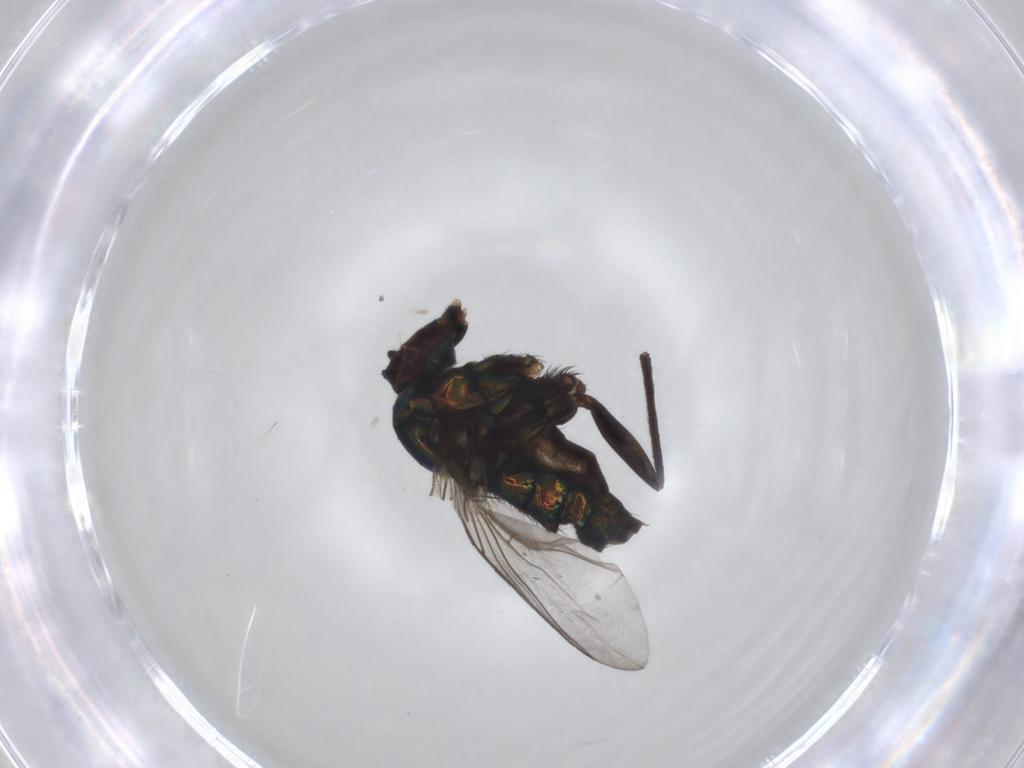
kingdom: Animalia
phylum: Arthropoda
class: Insecta
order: Diptera
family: Dolichopodidae
